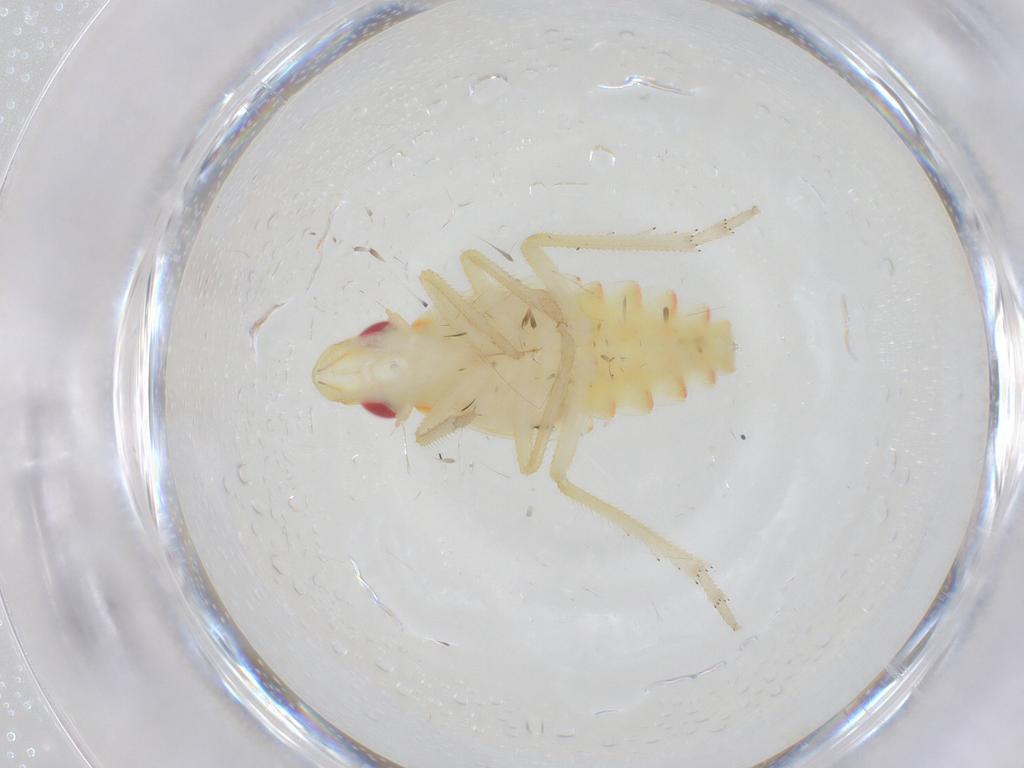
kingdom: Animalia
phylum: Arthropoda
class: Insecta
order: Hemiptera
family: Tropiduchidae
